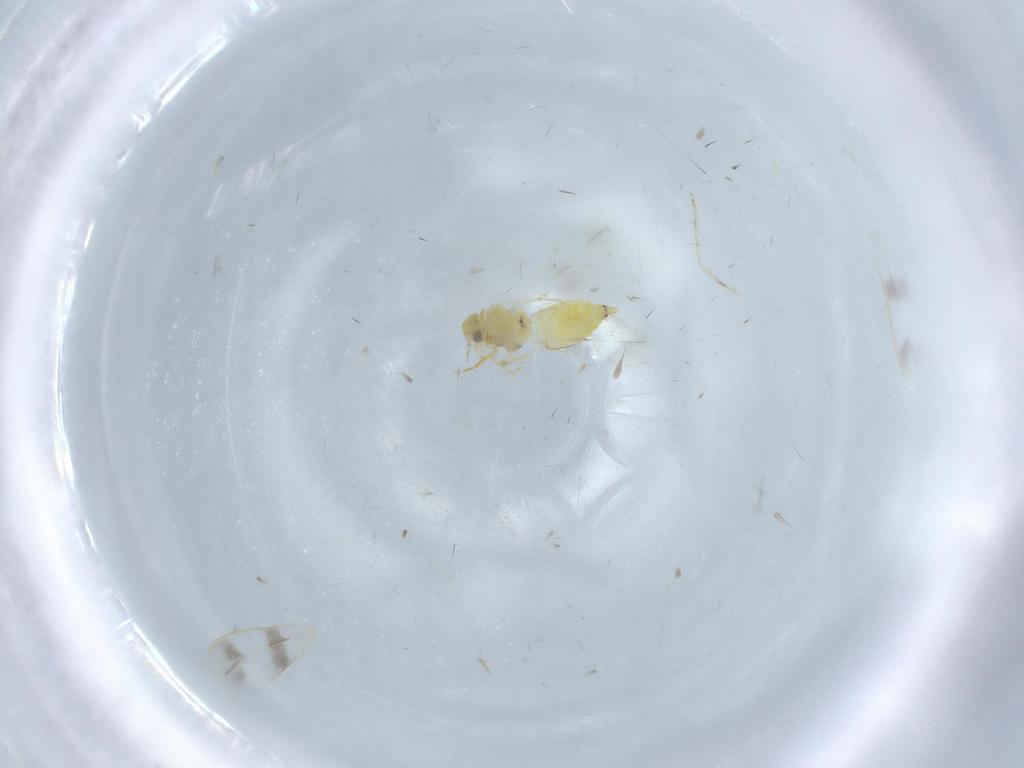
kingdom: Animalia
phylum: Arthropoda
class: Insecta
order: Hemiptera
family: Aleyrodidae
